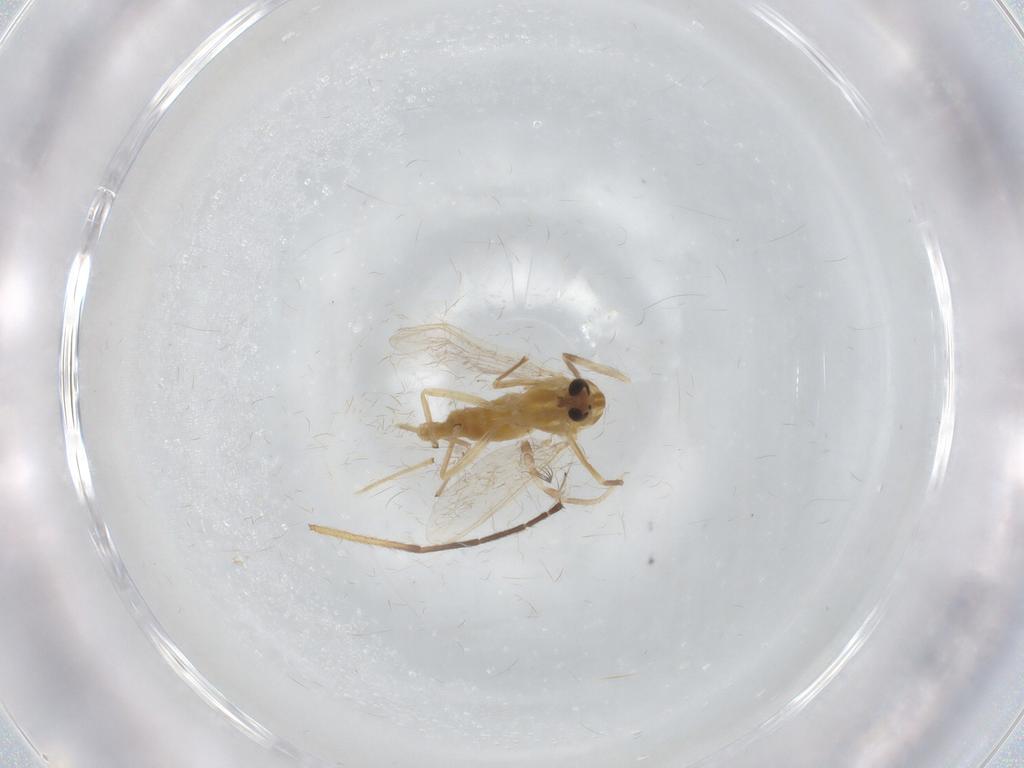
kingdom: Animalia
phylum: Arthropoda
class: Insecta
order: Diptera
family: Chironomidae
